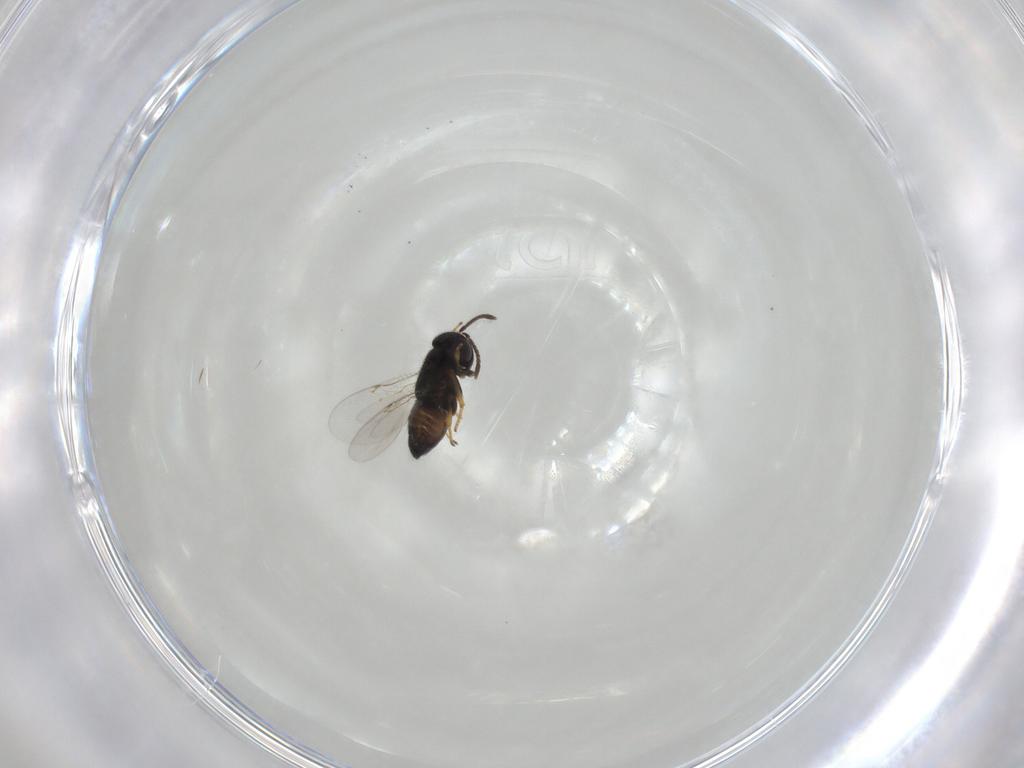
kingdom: Animalia
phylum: Arthropoda
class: Insecta
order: Hymenoptera
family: Encyrtidae
